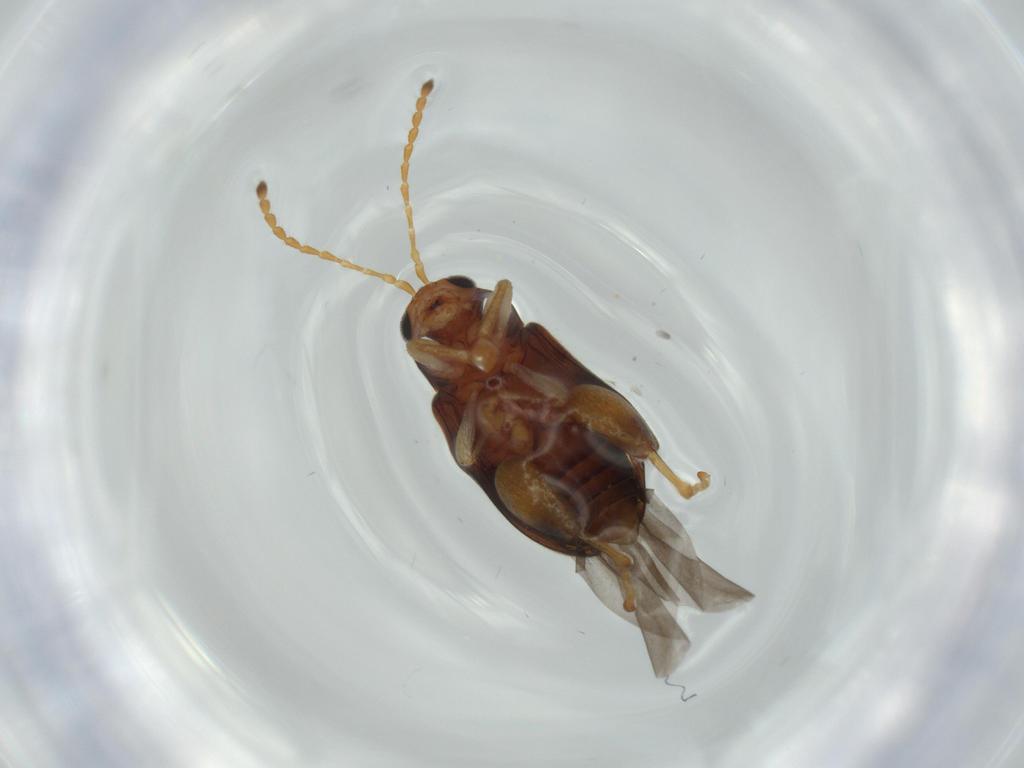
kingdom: Animalia
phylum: Arthropoda
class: Insecta
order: Coleoptera
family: Chrysomelidae
